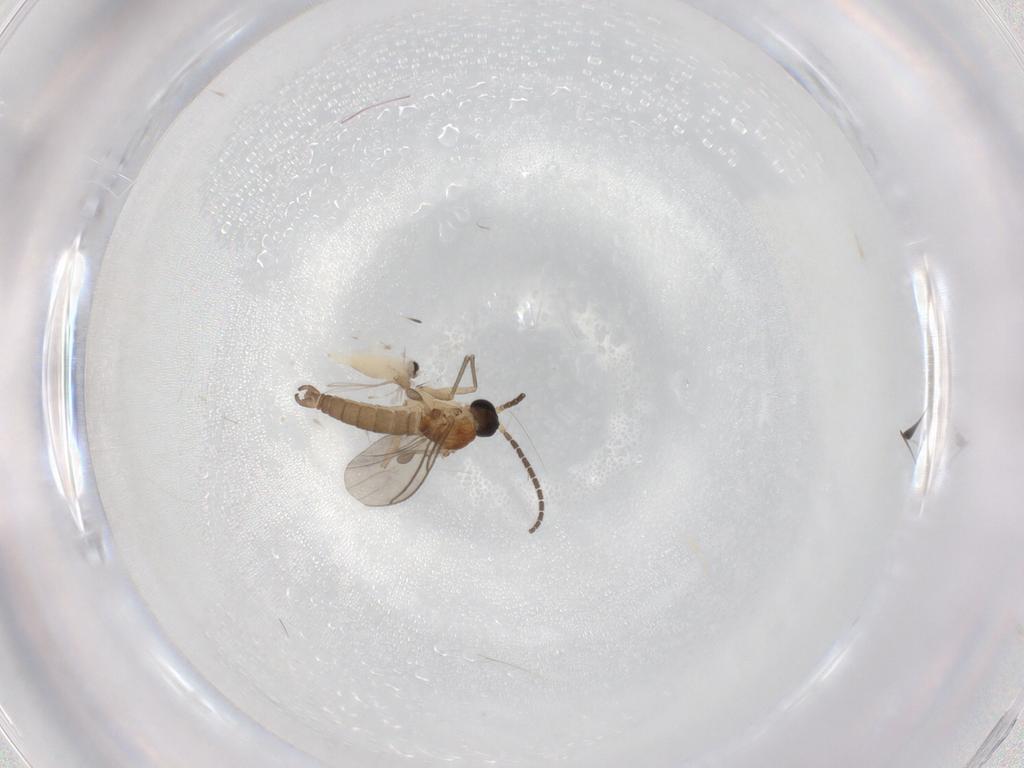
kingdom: Animalia
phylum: Arthropoda
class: Insecta
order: Diptera
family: Cecidomyiidae
